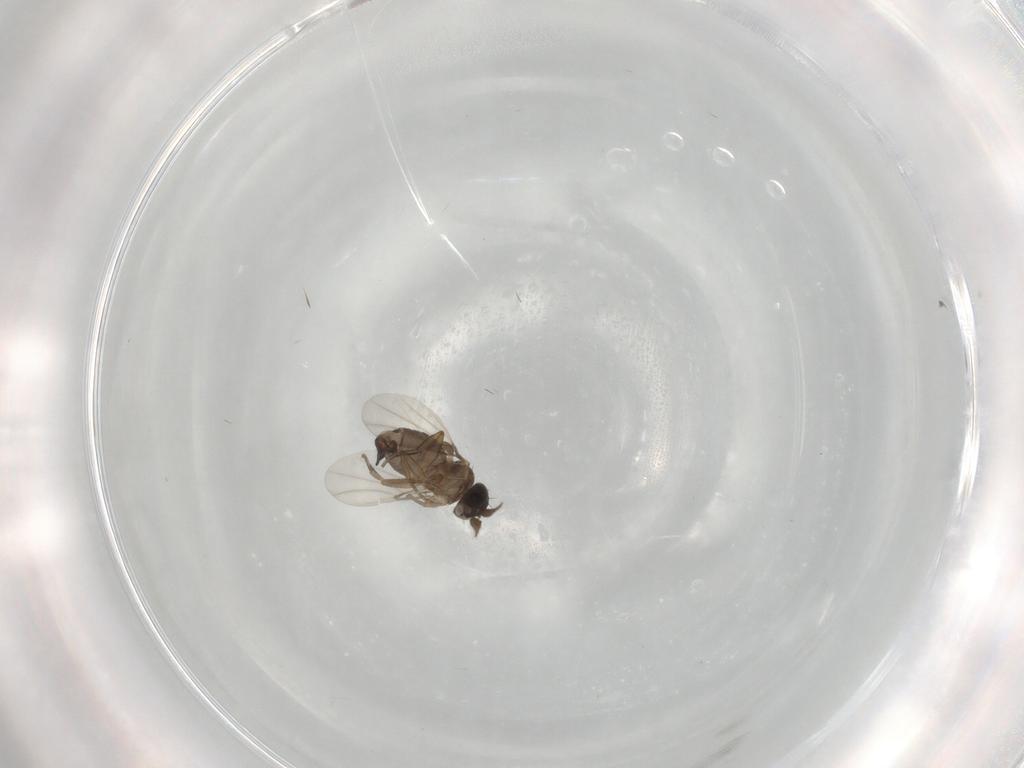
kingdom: Animalia
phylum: Arthropoda
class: Insecta
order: Diptera
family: Phoridae
